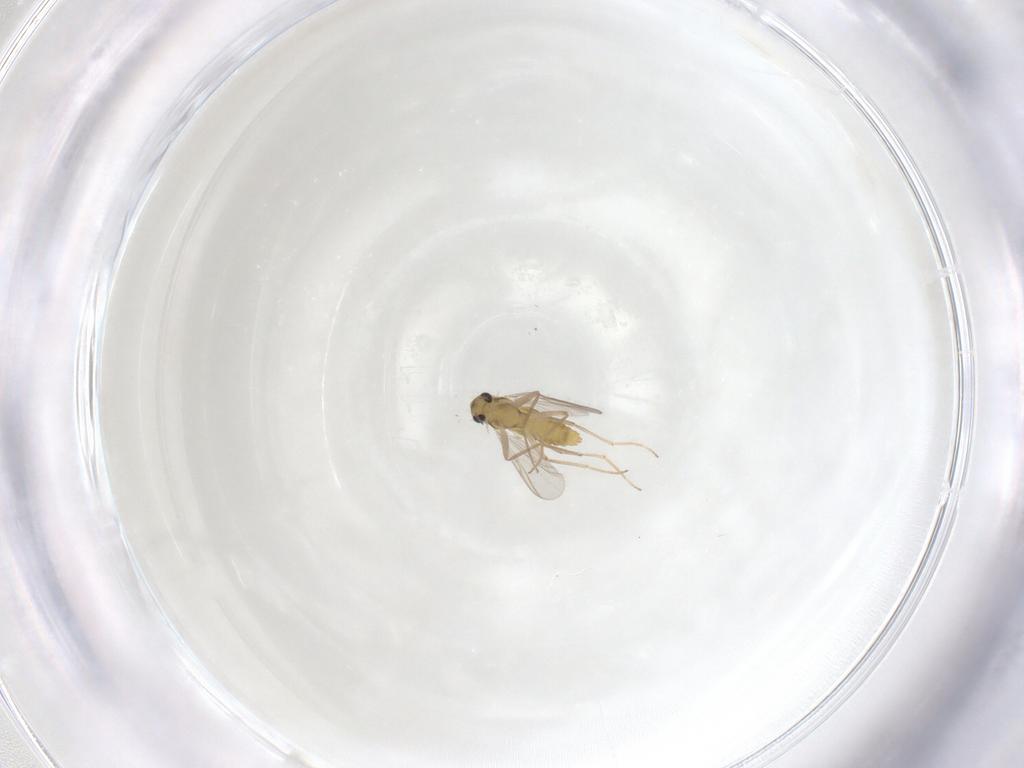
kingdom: Animalia
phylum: Arthropoda
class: Insecta
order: Diptera
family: Chironomidae
